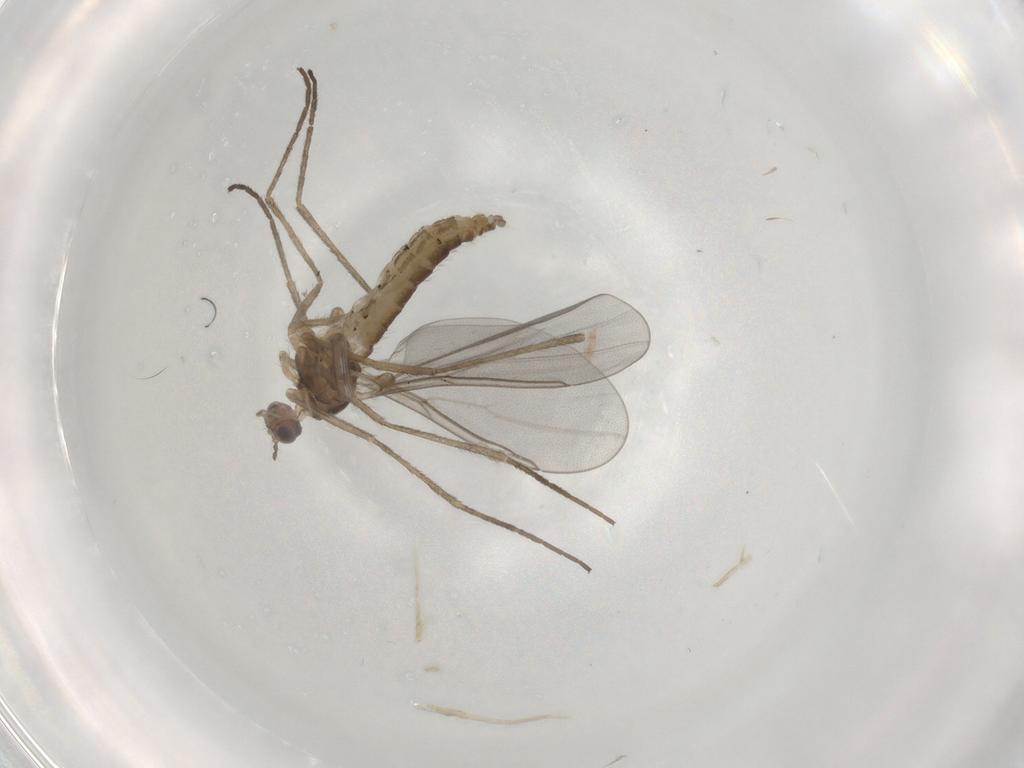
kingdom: Animalia
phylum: Arthropoda
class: Insecta
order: Diptera
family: Cecidomyiidae
